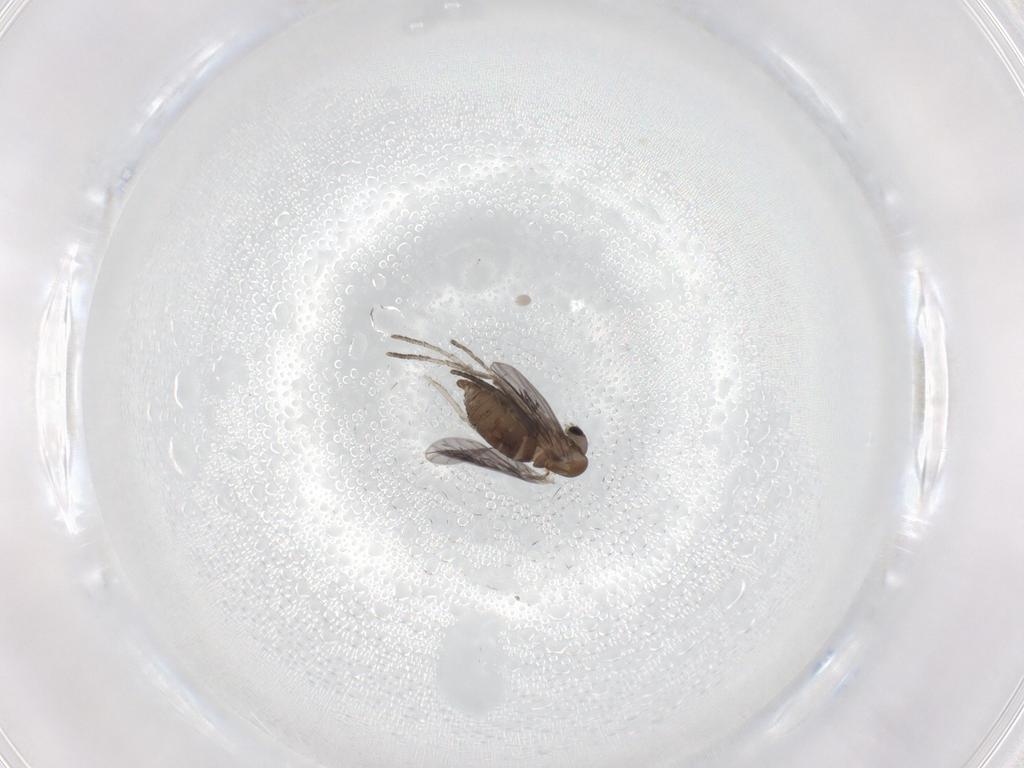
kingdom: Animalia
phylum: Arthropoda
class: Insecta
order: Diptera
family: Sciaridae
